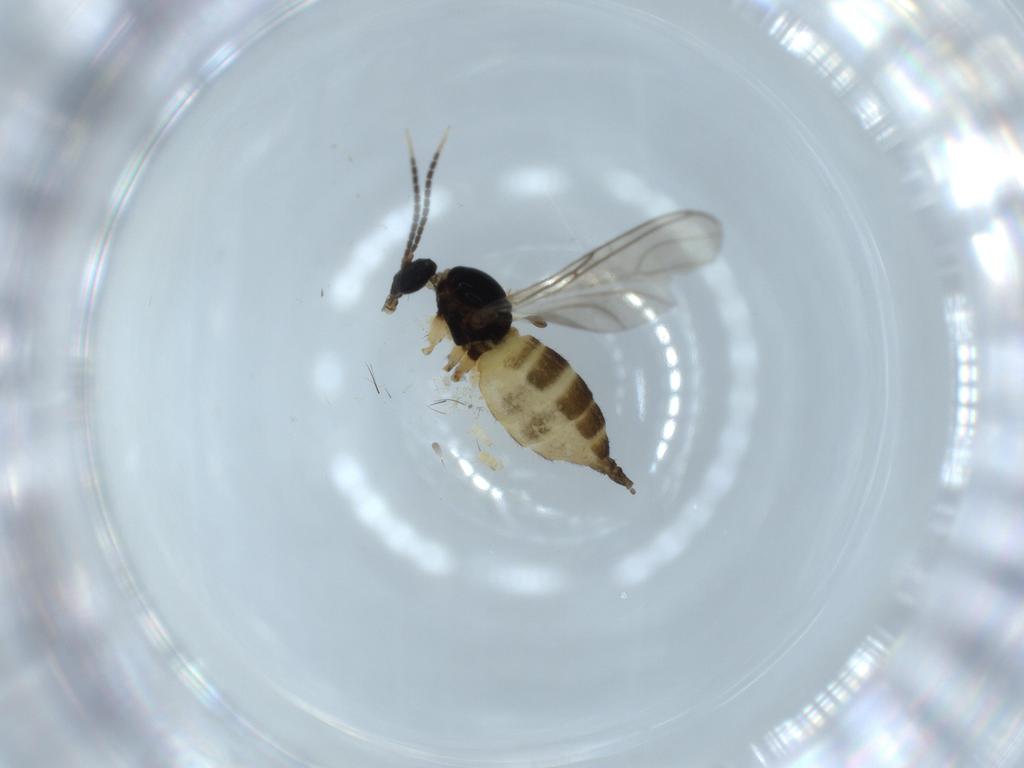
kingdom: Animalia
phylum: Arthropoda
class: Insecta
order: Diptera
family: Sciaridae
